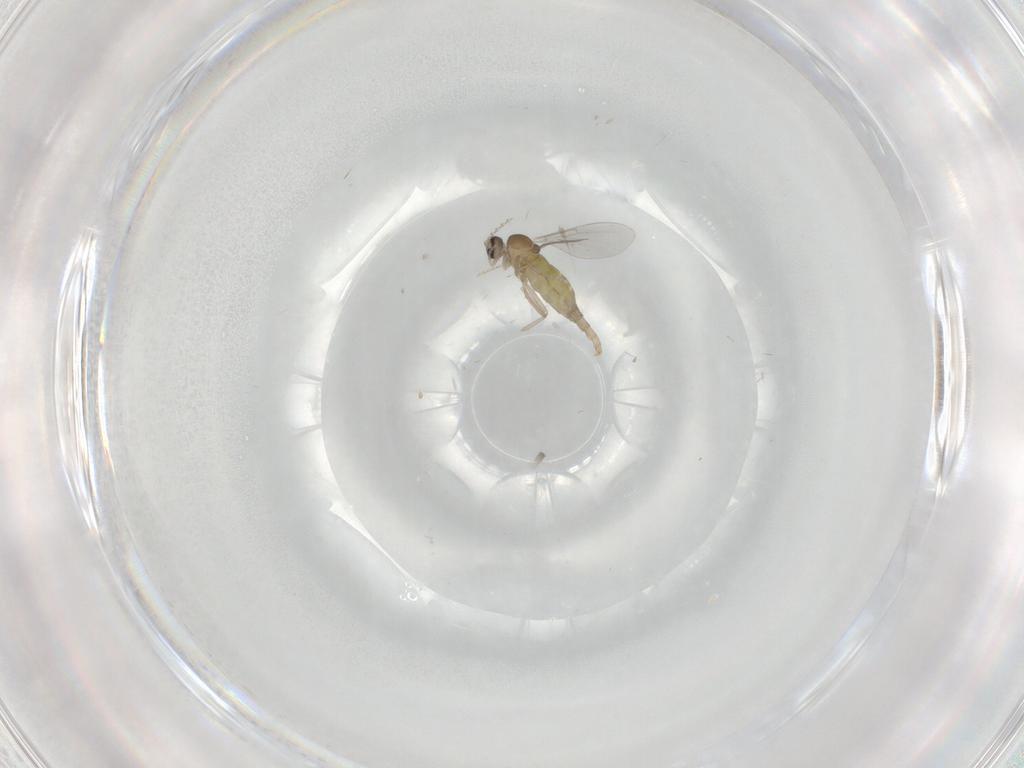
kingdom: Animalia
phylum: Arthropoda
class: Insecta
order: Diptera
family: Cecidomyiidae
